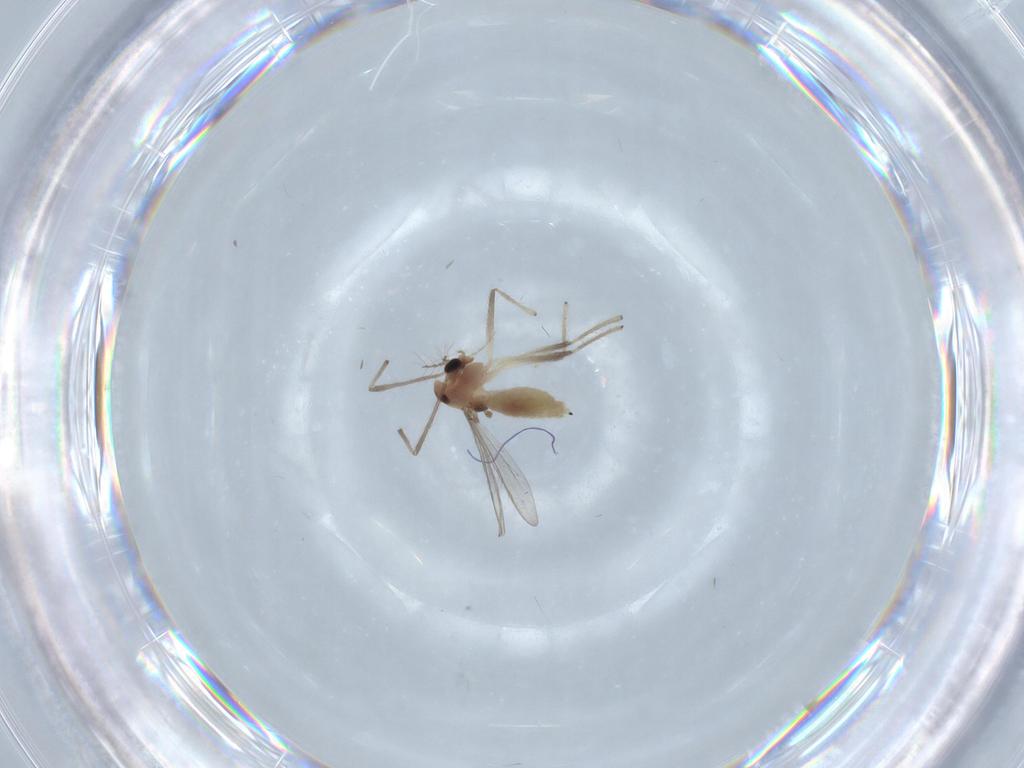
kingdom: Animalia
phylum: Arthropoda
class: Insecta
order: Diptera
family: Chironomidae
